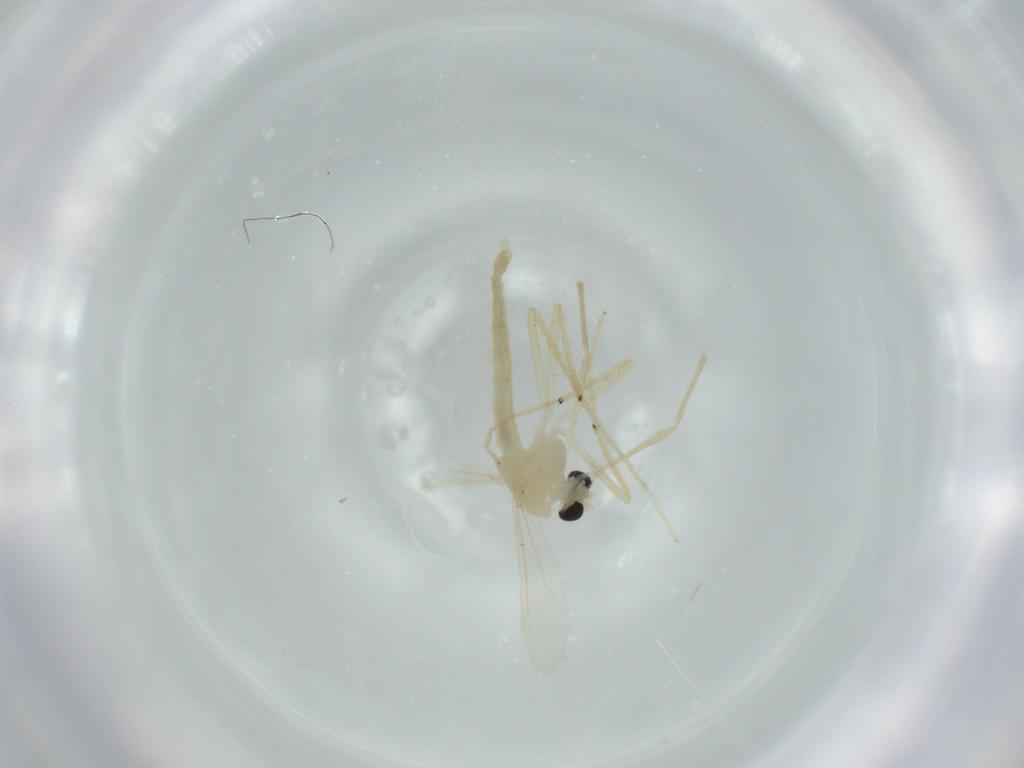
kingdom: Animalia
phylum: Arthropoda
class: Insecta
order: Diptera
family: Chironomidae
